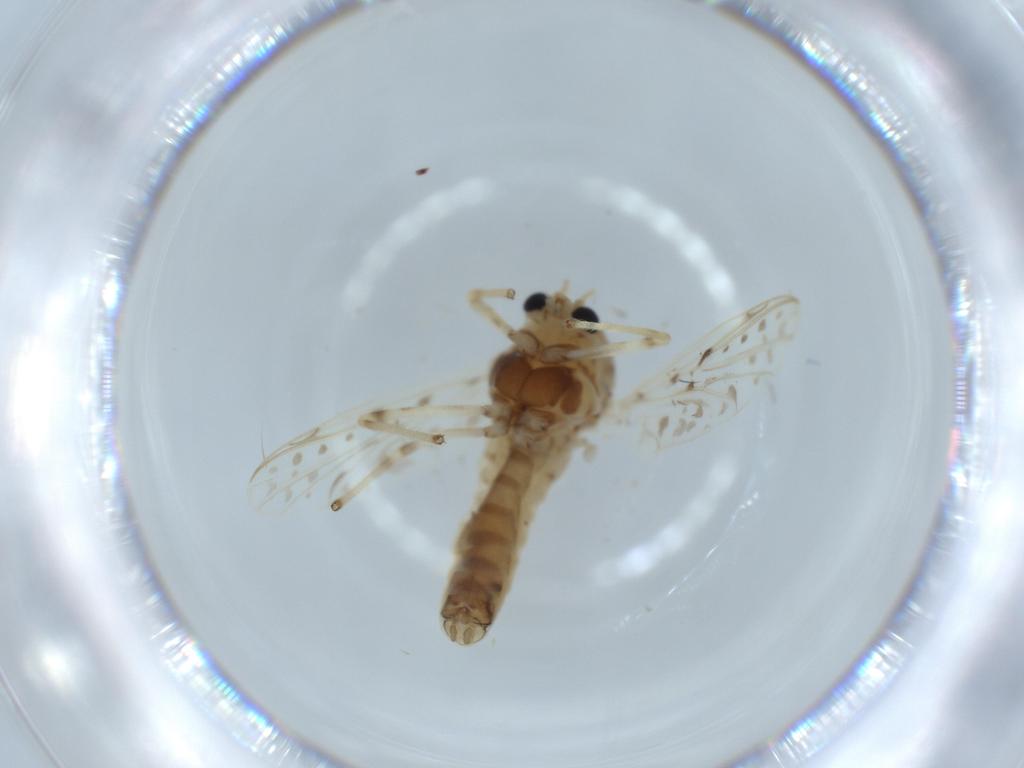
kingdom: Animalia
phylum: Arthropoda
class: Insecta
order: Diptera
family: Chironomidae
